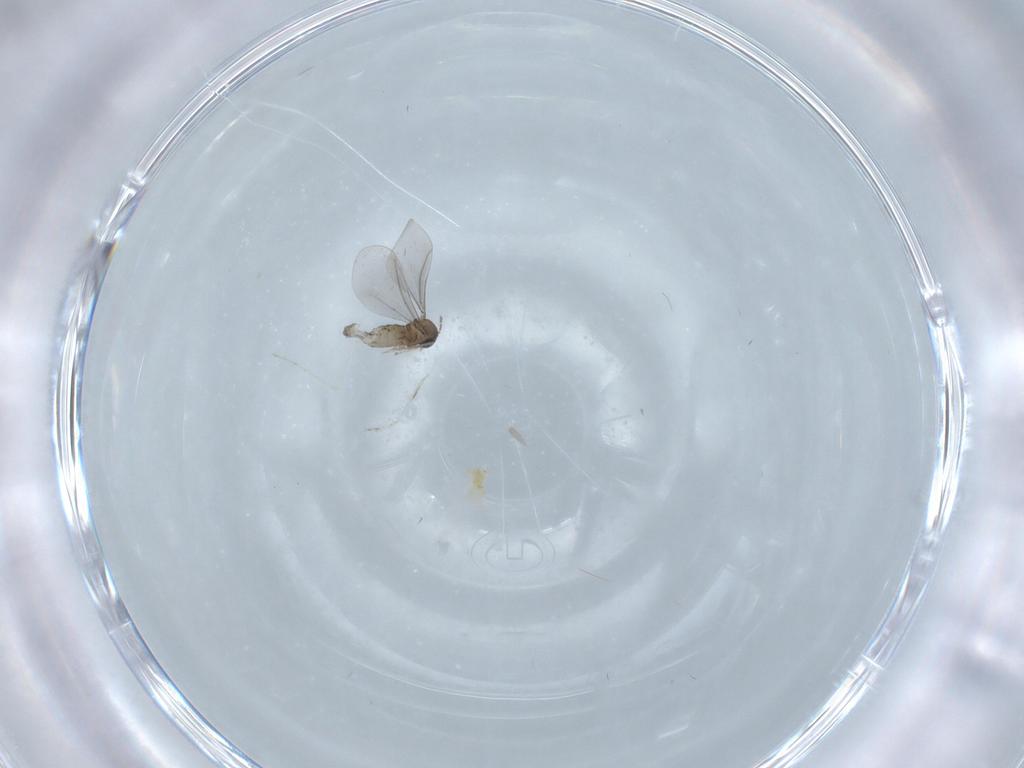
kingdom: Animalia
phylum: Arthropoda
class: Insecta
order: Diptera
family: Cecidomyiidae
